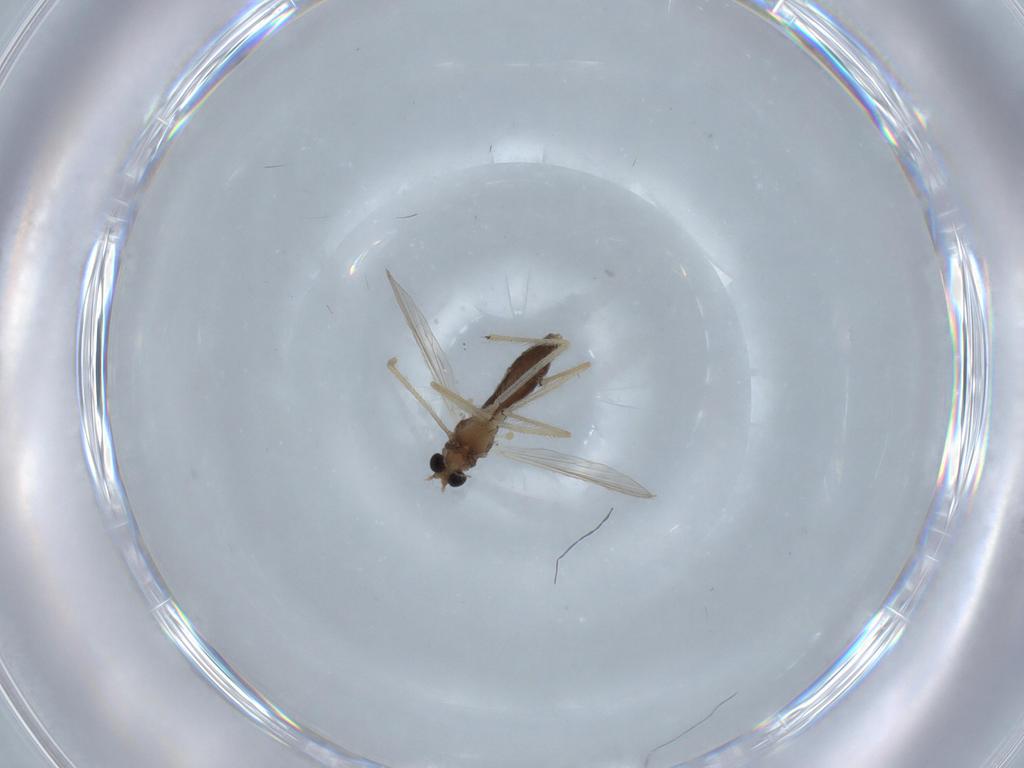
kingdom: Animalia
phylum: Arthropoda
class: Insecta
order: Diptera
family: Chironomidae
